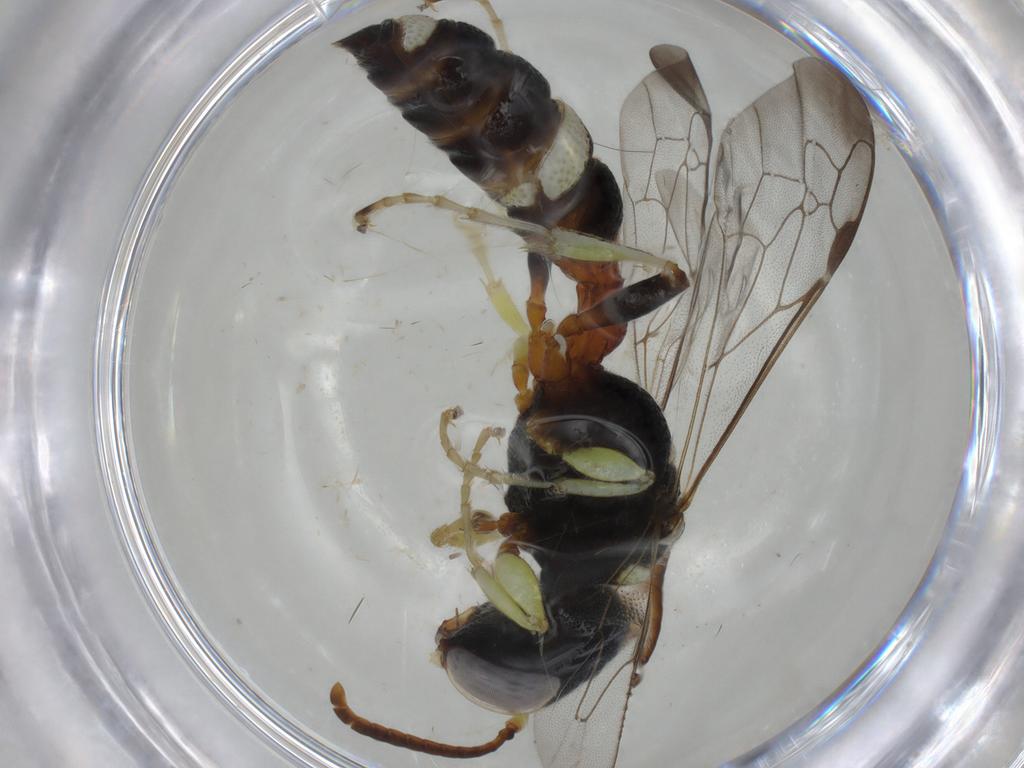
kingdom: Animalia
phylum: Arthropoda
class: Insecta
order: Hymenoptera
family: Crabronidae
